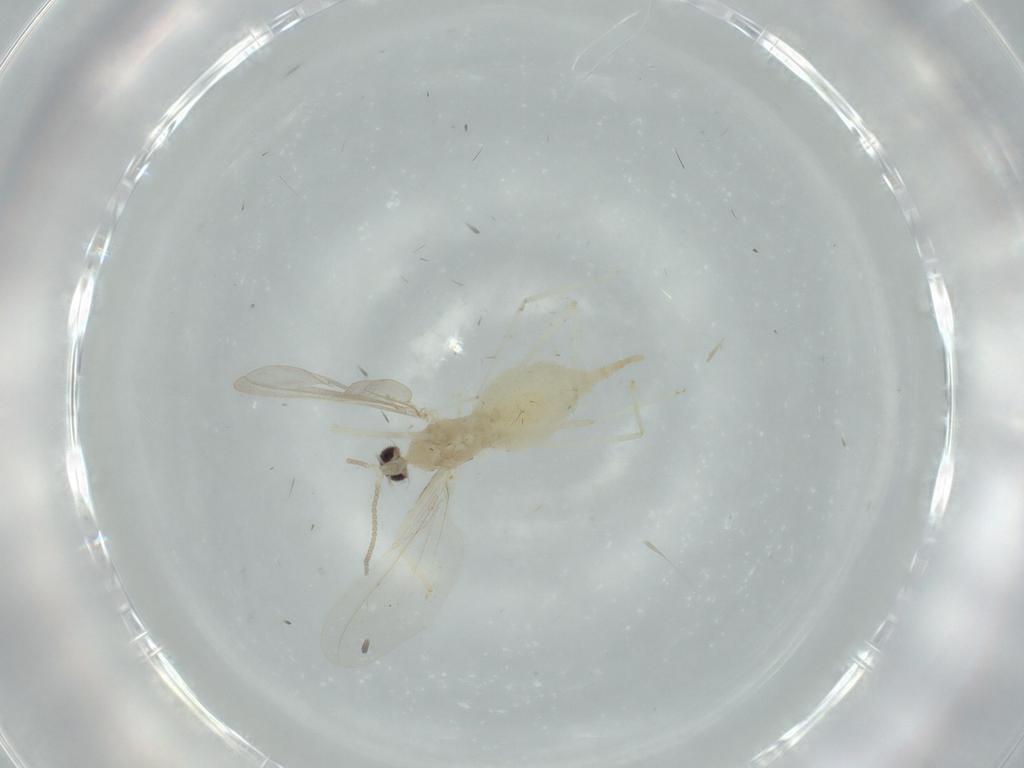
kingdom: Animalia
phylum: Arthropoda
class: Insecta
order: Diptera
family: Cecidomyiidae
